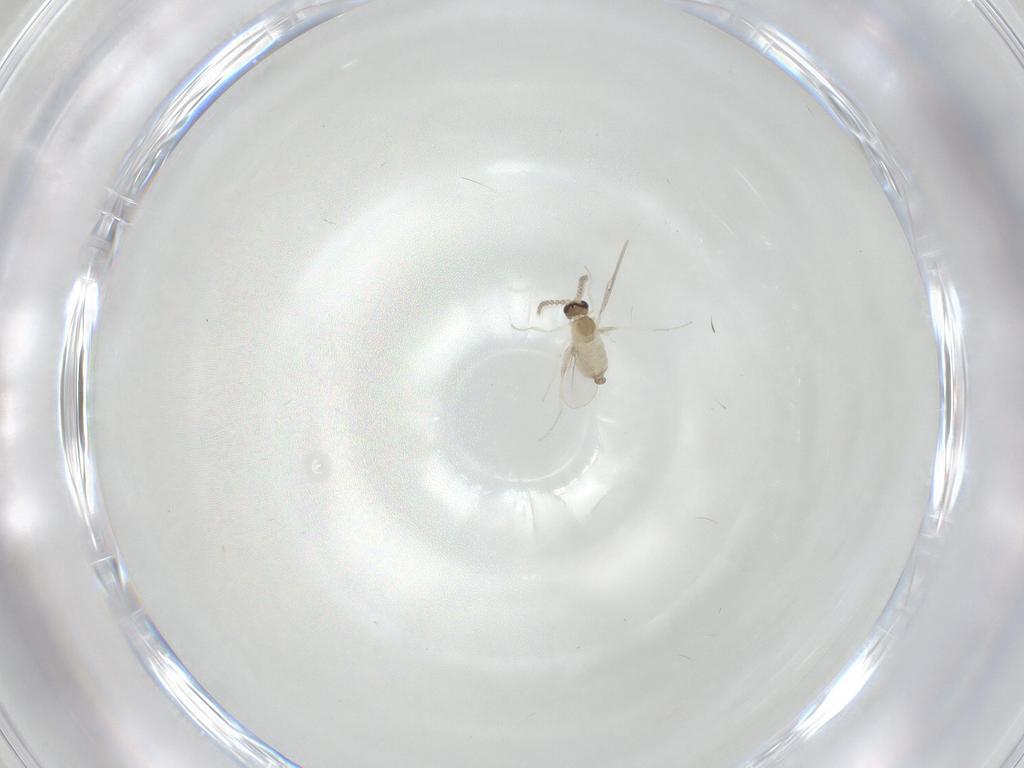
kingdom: Animalia
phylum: Arthropoda
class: Insecta
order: Diptera
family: Cecidomyiidae
